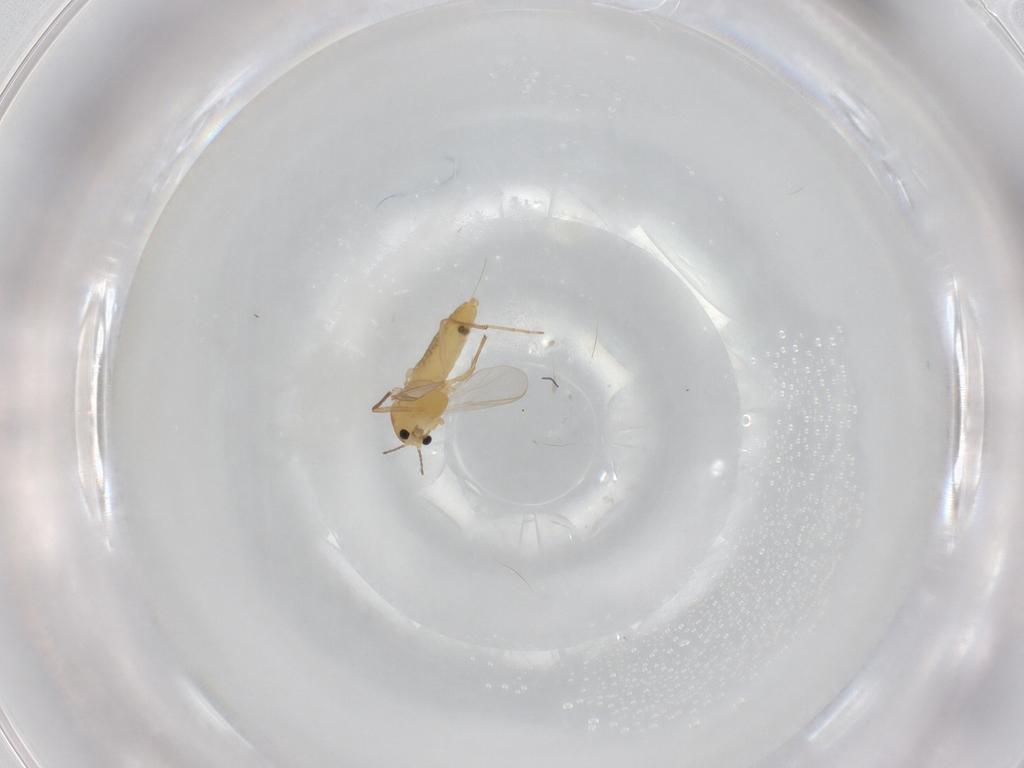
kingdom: Animalia
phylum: Arthropoda
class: Insecta
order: Diptera
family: Chironomidae
